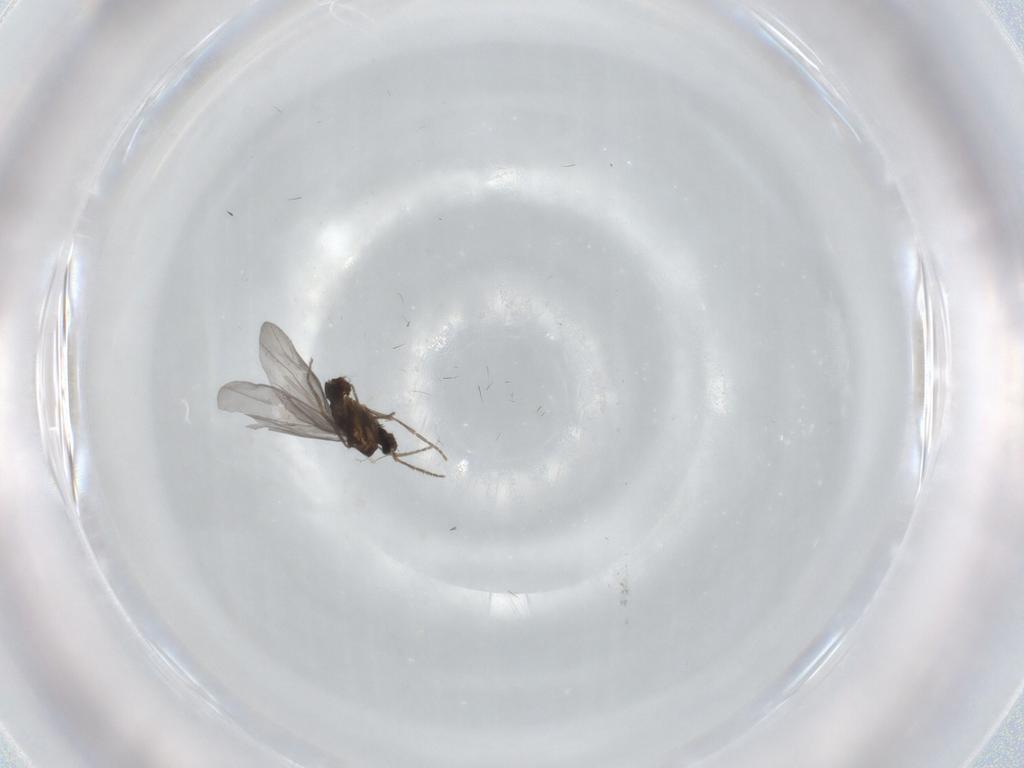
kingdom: Animalia
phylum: Arthropoda
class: Insecta
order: Diptera
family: Cecidomyiidae
